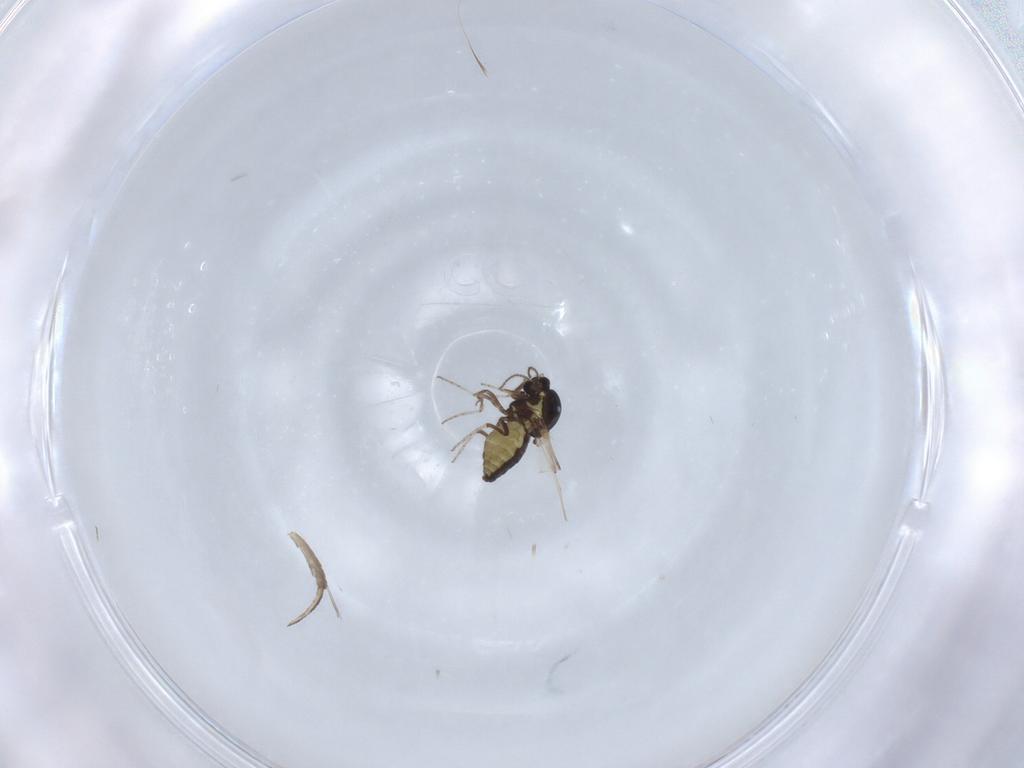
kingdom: Animalia
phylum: Arthropoda
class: Insecta
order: Diptera
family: Ceratopogonidae
